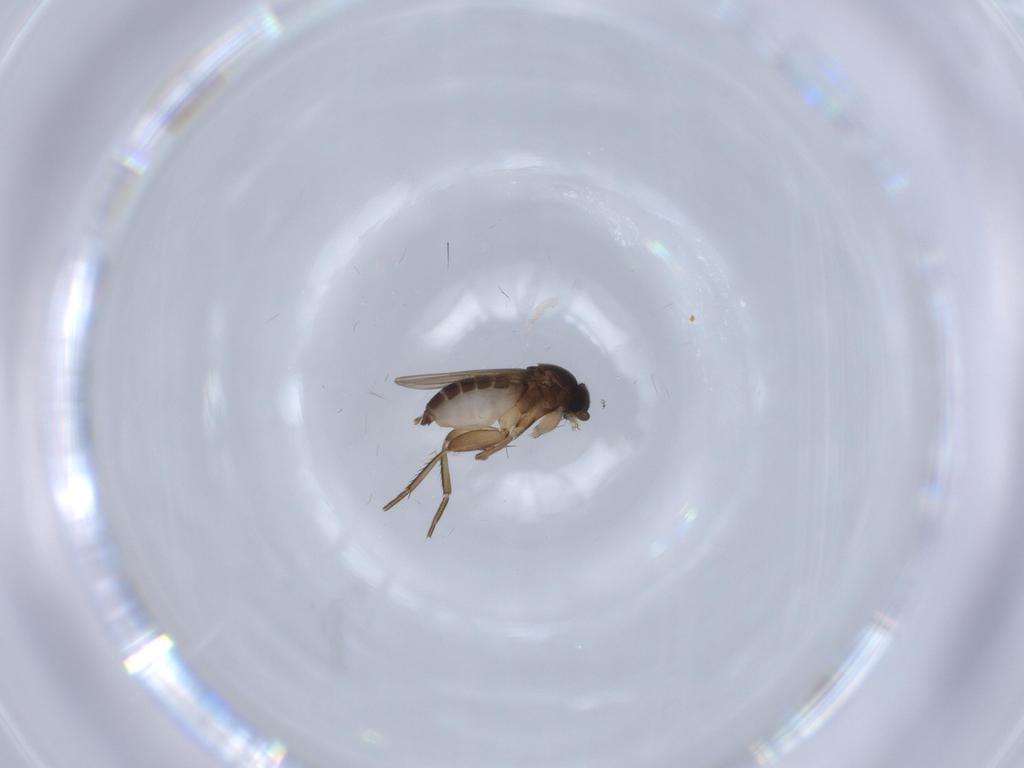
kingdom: Animalia
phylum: Arthropoda
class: Insecta
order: Diptera
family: Phoridae
